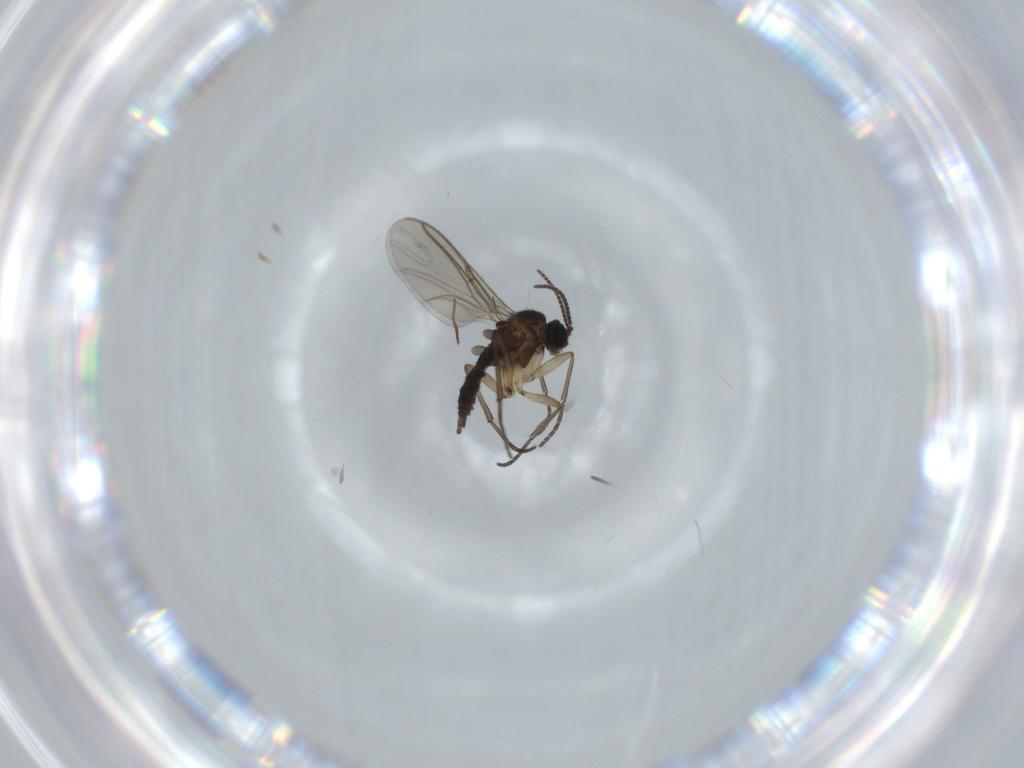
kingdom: Animalia
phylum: Arthropoda
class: Insecta
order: Diptera
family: Sciaridae
